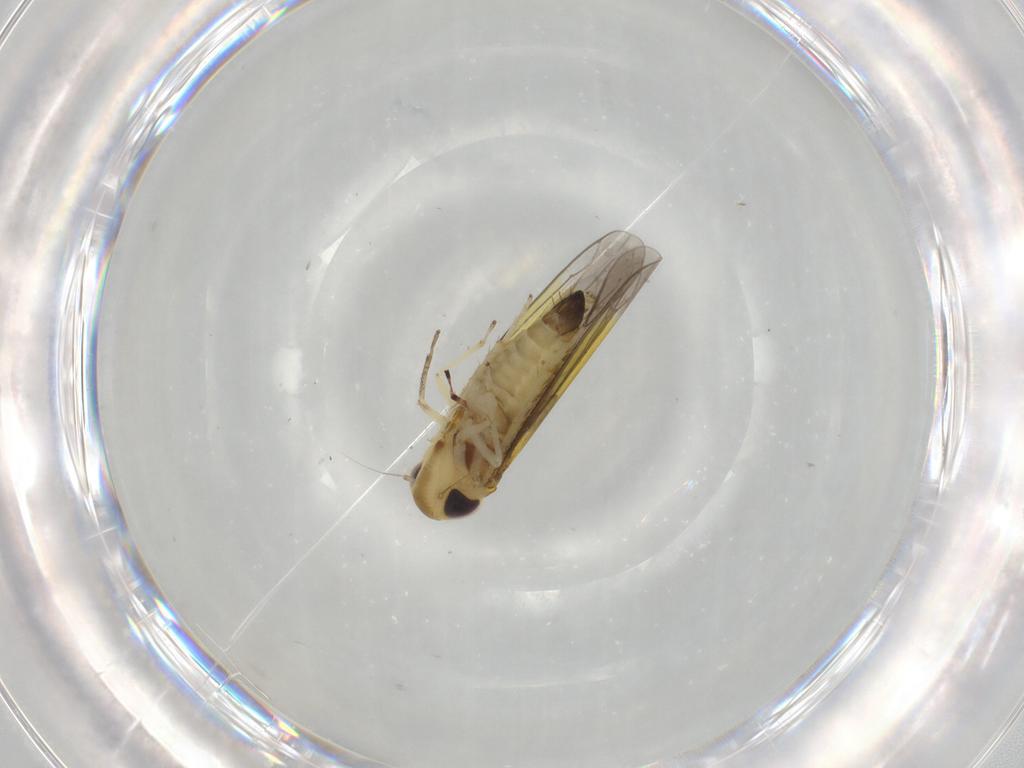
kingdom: Animalia
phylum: Arthropoda
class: Insecta
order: Hemiptera
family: Cicadellidae
